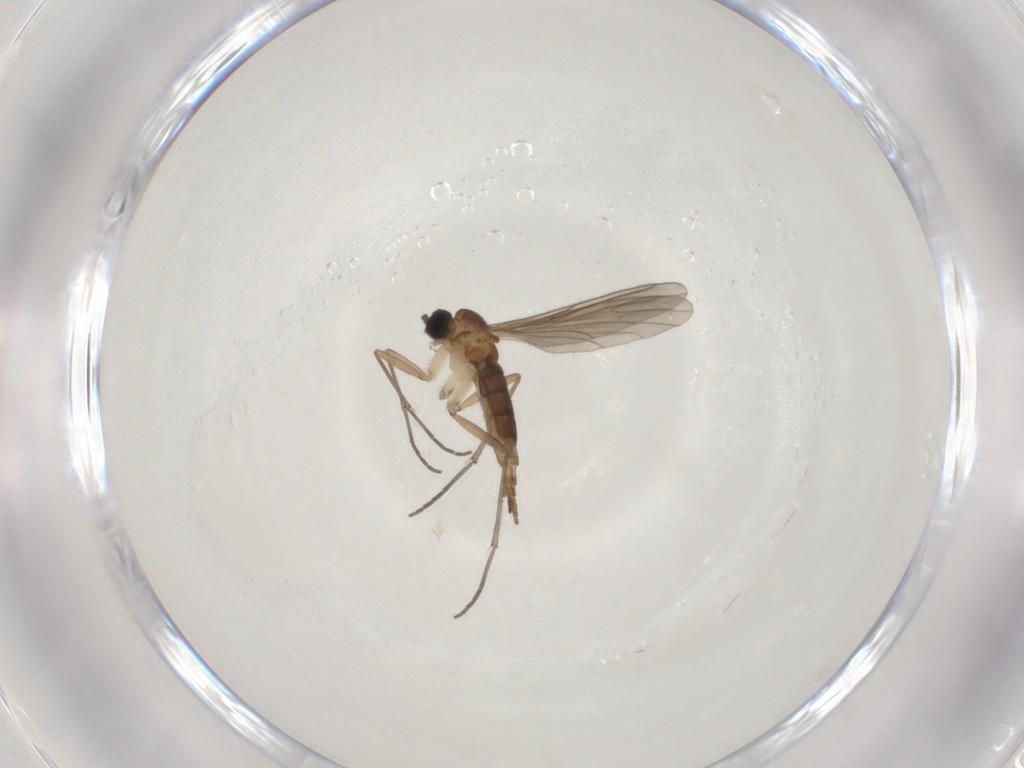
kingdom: Animalia
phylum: Arthropoda
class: Insecta
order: Diptera
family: Sciaridae
